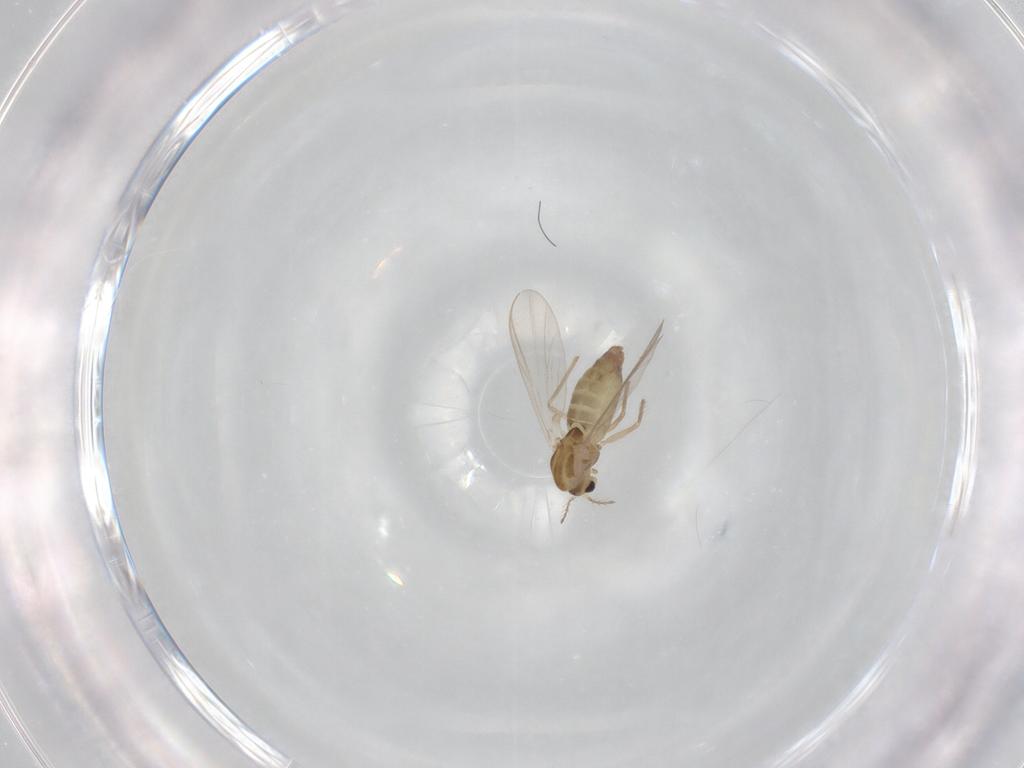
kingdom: Animalia
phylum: Arthropoda
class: Insecta
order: Diptera
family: Chironomidae
